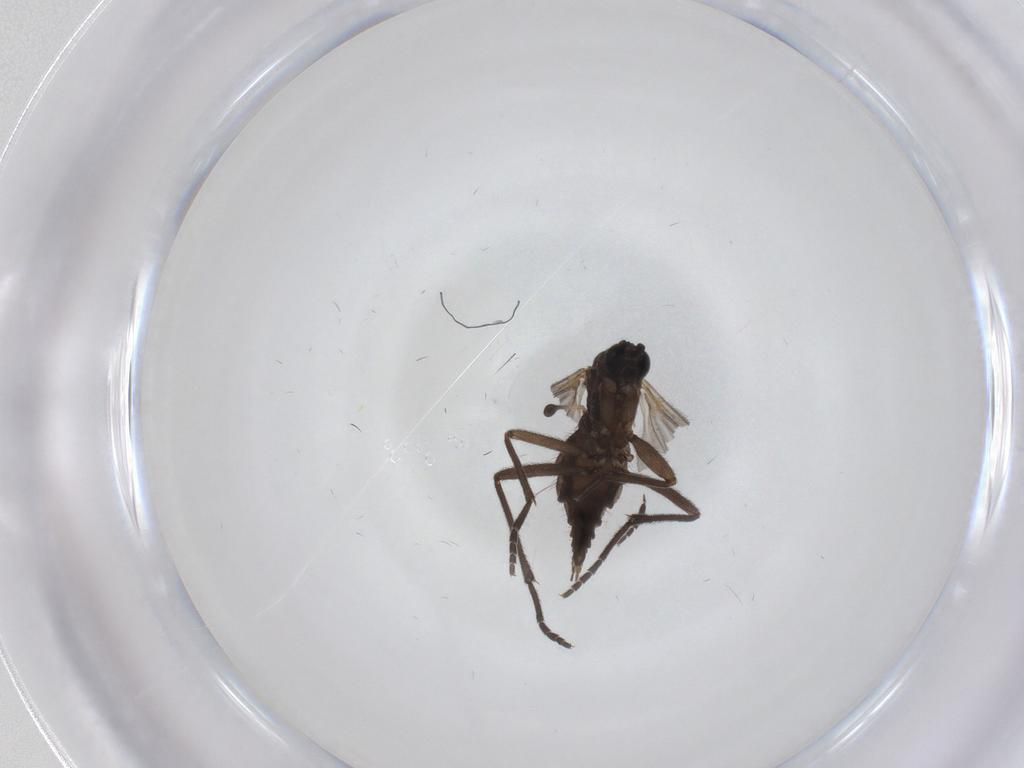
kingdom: Animalia
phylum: Arthropoda
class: Insecta
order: Diptera
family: Sciaridae
